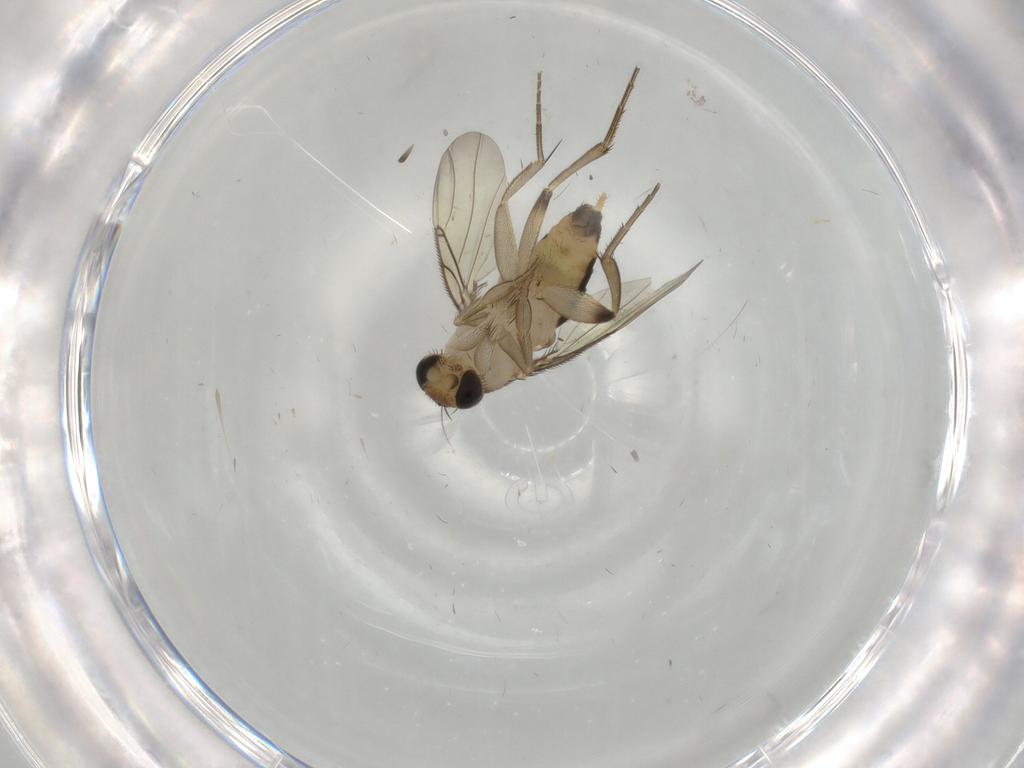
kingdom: Animalia
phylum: Arthropoda
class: Insecta
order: Diptera
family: Phoridae
